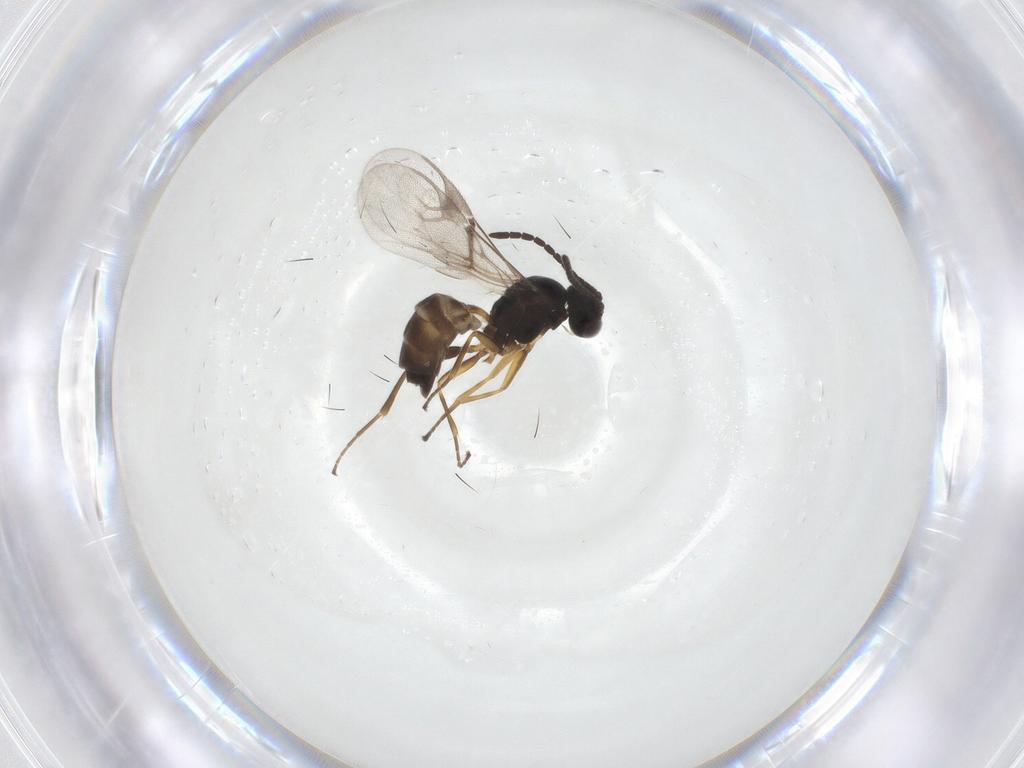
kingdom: Animalia
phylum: Arthropoda
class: Insecta
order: Hymenoptera
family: Braconidae
